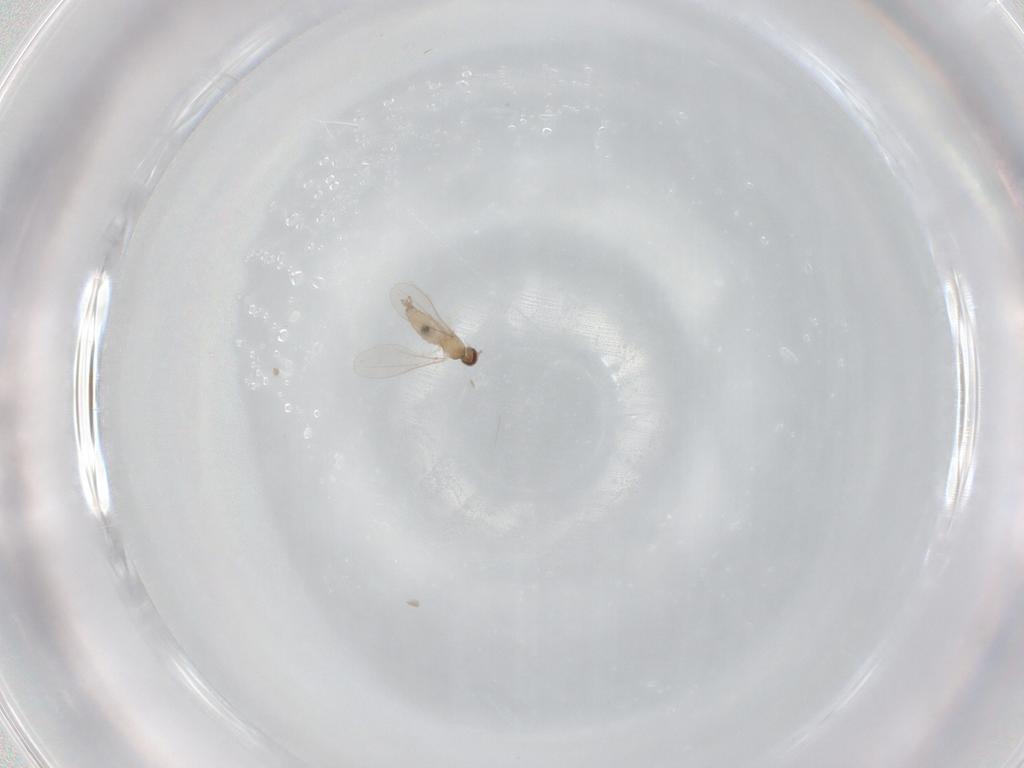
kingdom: Animalia
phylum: Arthropoda
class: Insecta
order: Diptera
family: Cecidomyiidae
